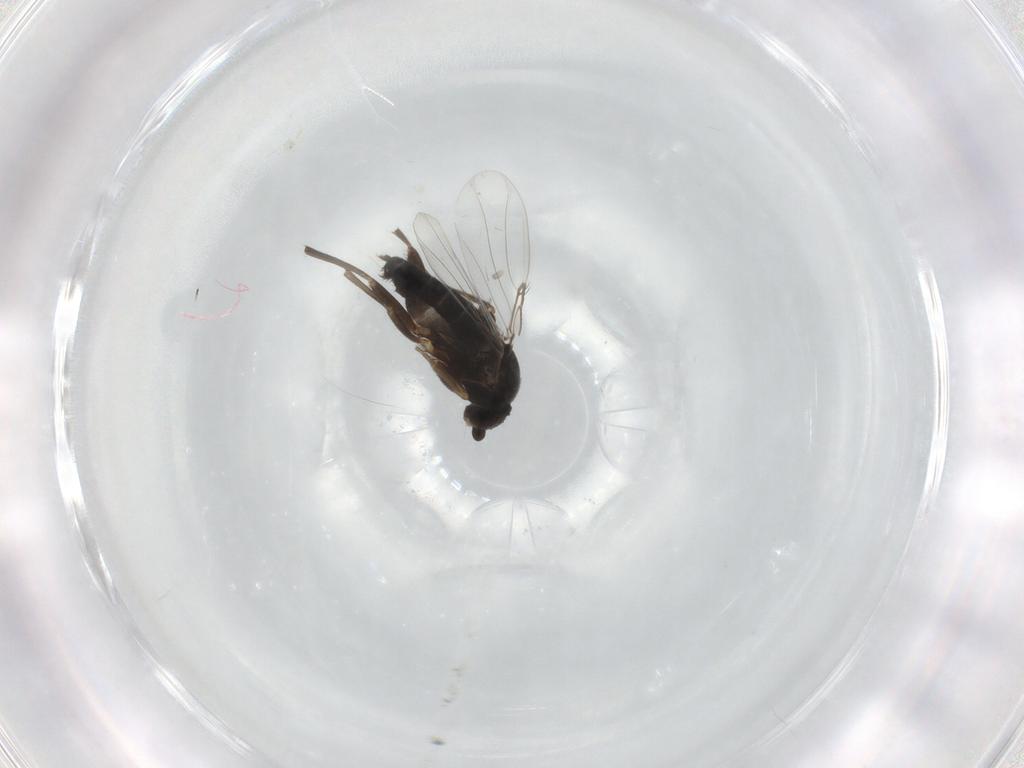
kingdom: Animalia
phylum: Arthropoda
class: Insecta
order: Diptera
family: Phoridae
